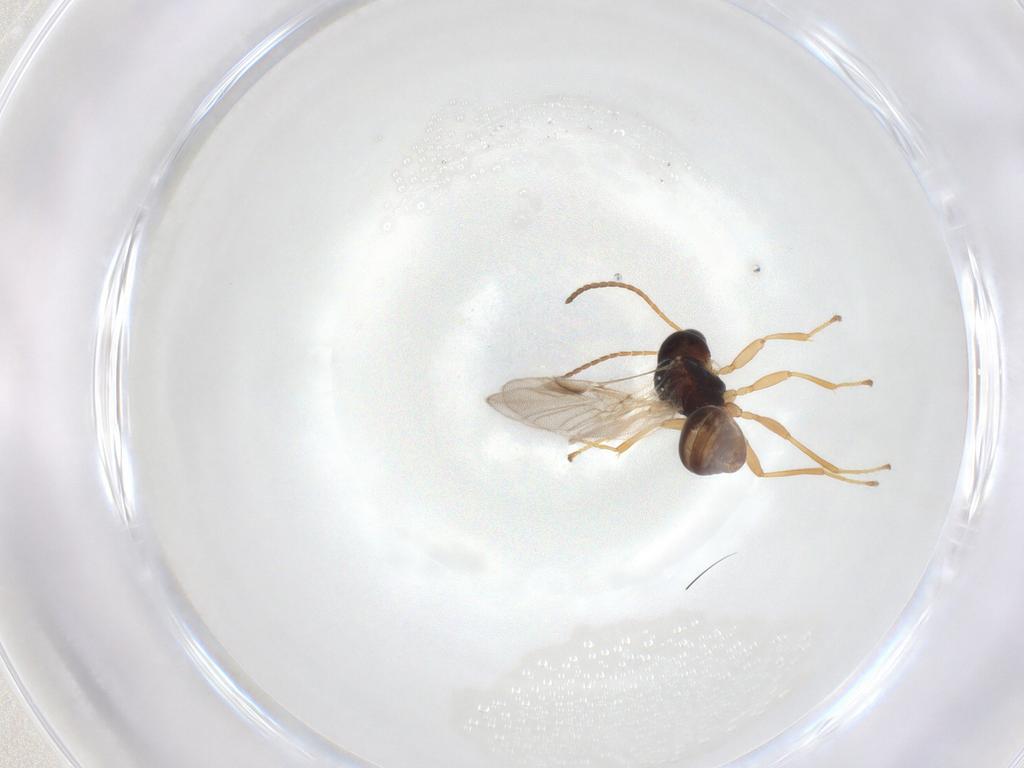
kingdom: Animalia
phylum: Arthropoda
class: Insecta
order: Hymenoptera
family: Braconidae
